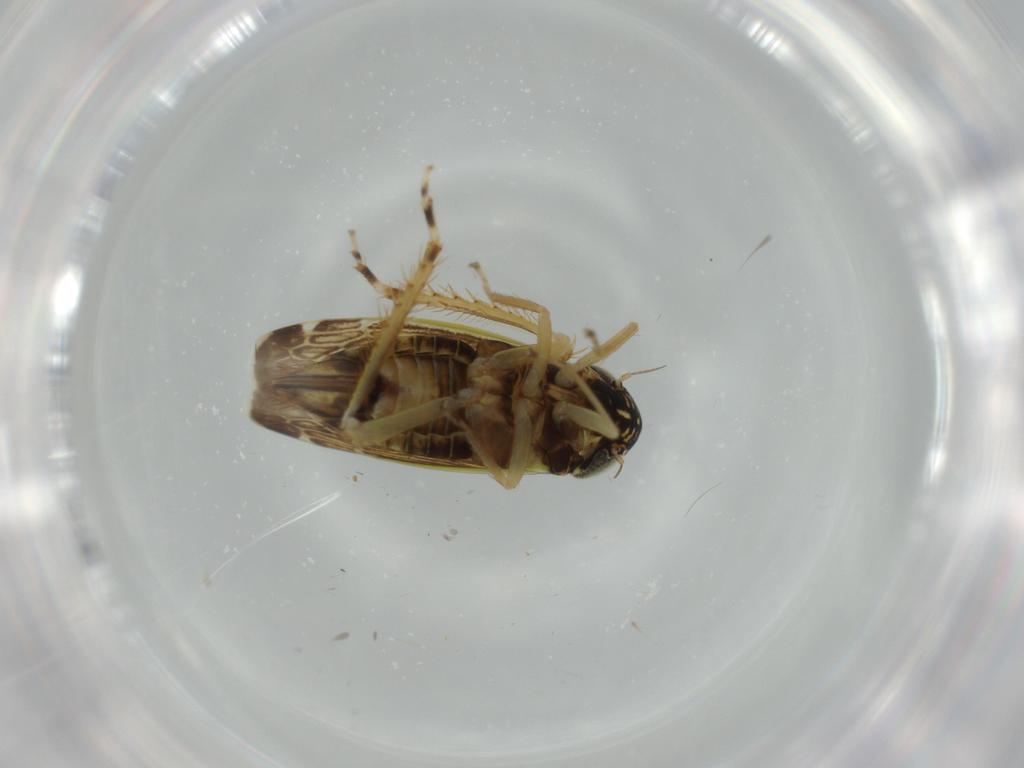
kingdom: Animalia
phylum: Arthropoda
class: Insecta
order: Hemiptera
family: Cicadellidae
